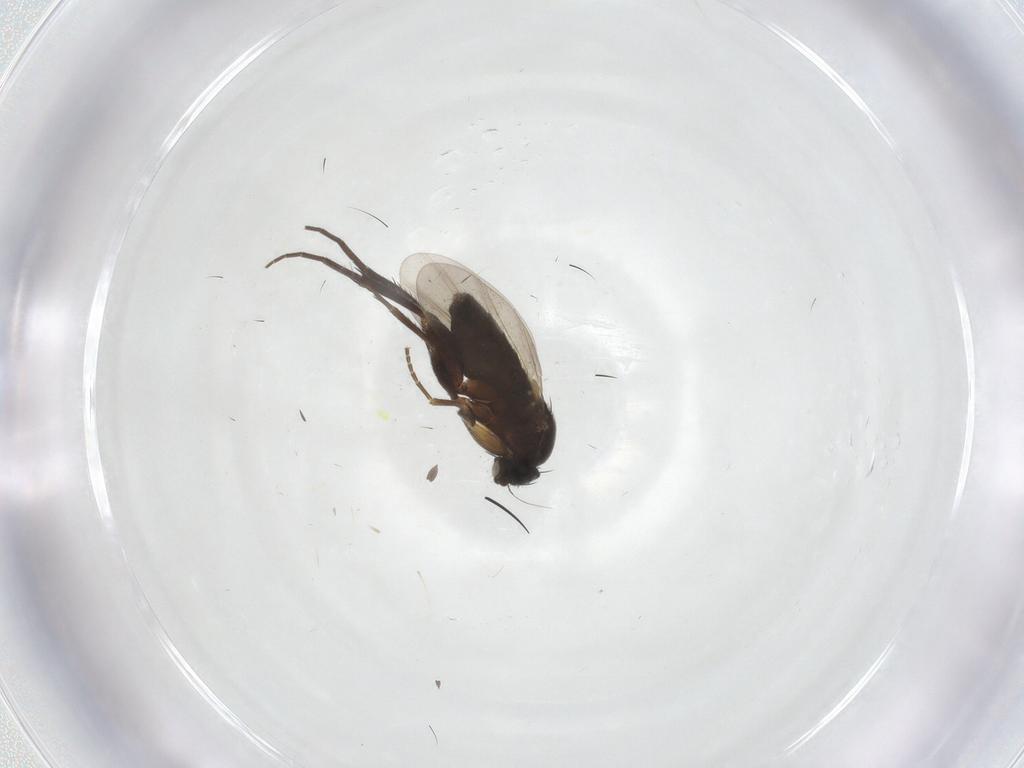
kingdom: Animalia
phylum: Arthropoda
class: Insecta
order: Diptera
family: Phoridae
